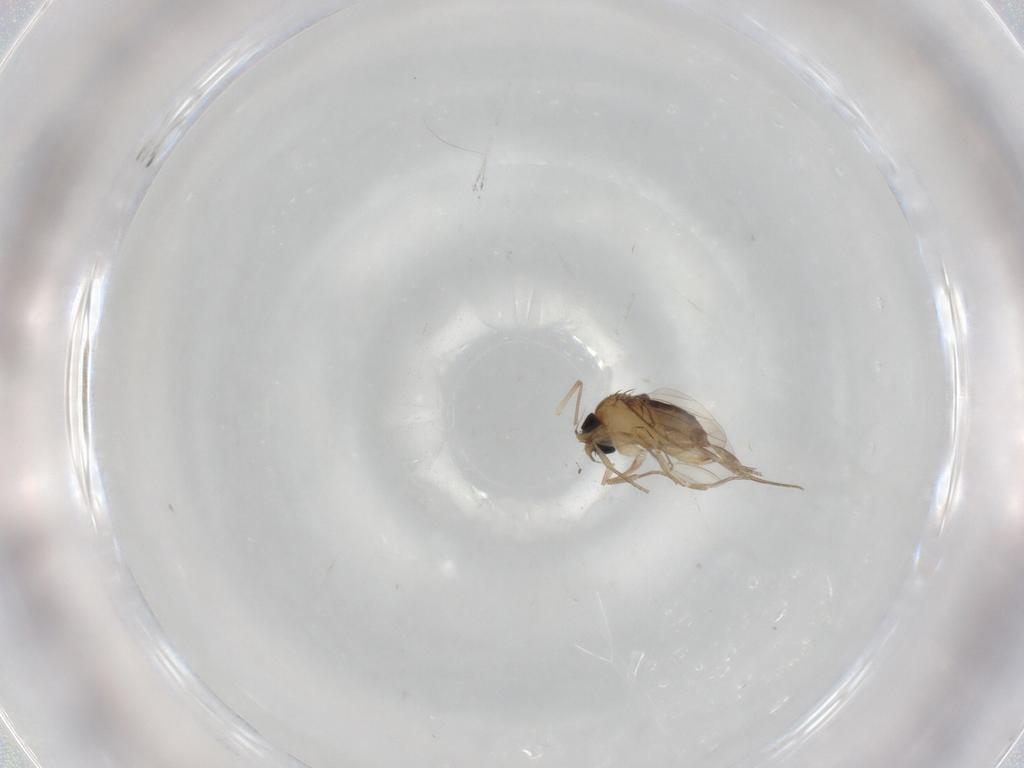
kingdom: Animalia
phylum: Arthropoda
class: Insecta
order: Diptera
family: Phoridae
